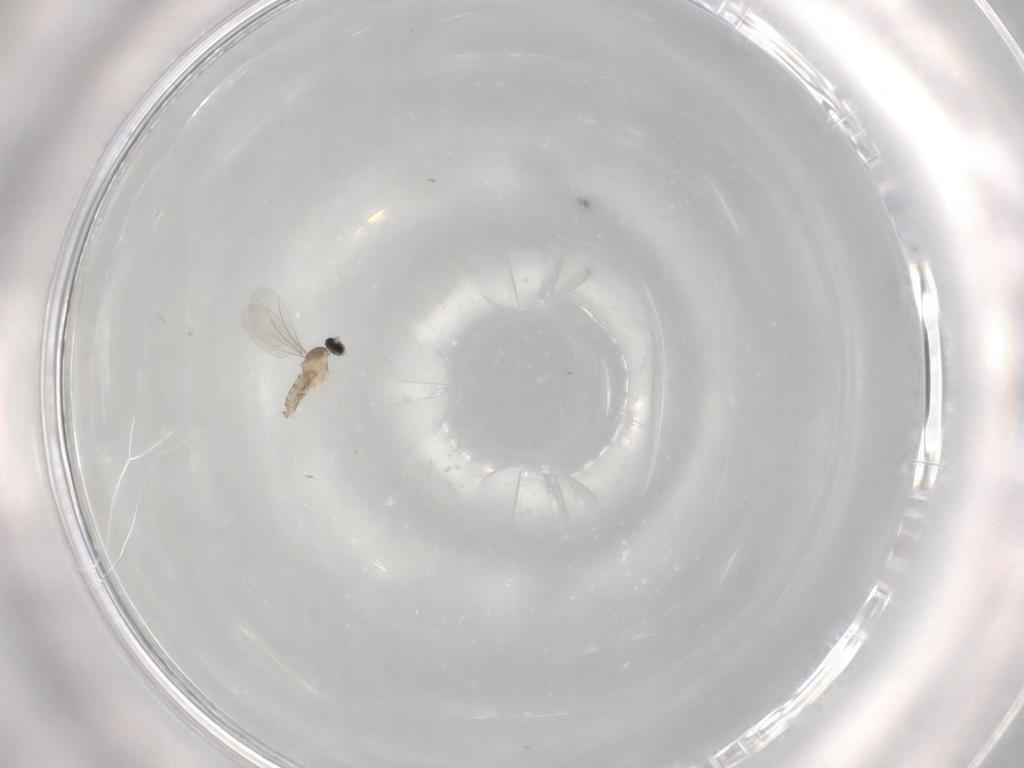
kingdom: Animalia
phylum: Arthropoda
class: Insecta
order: Diptera
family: Cecidomyiidae
